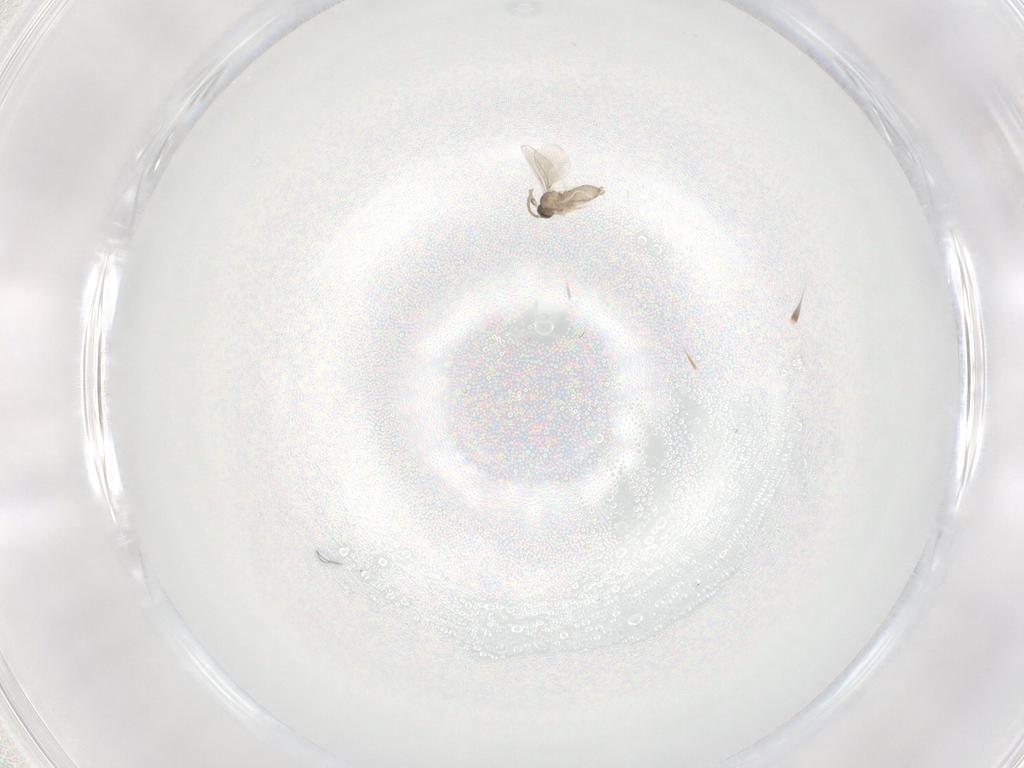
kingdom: Animalia
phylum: Arthropoda
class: Insecta
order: Diptera
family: Cecidomyiidae
